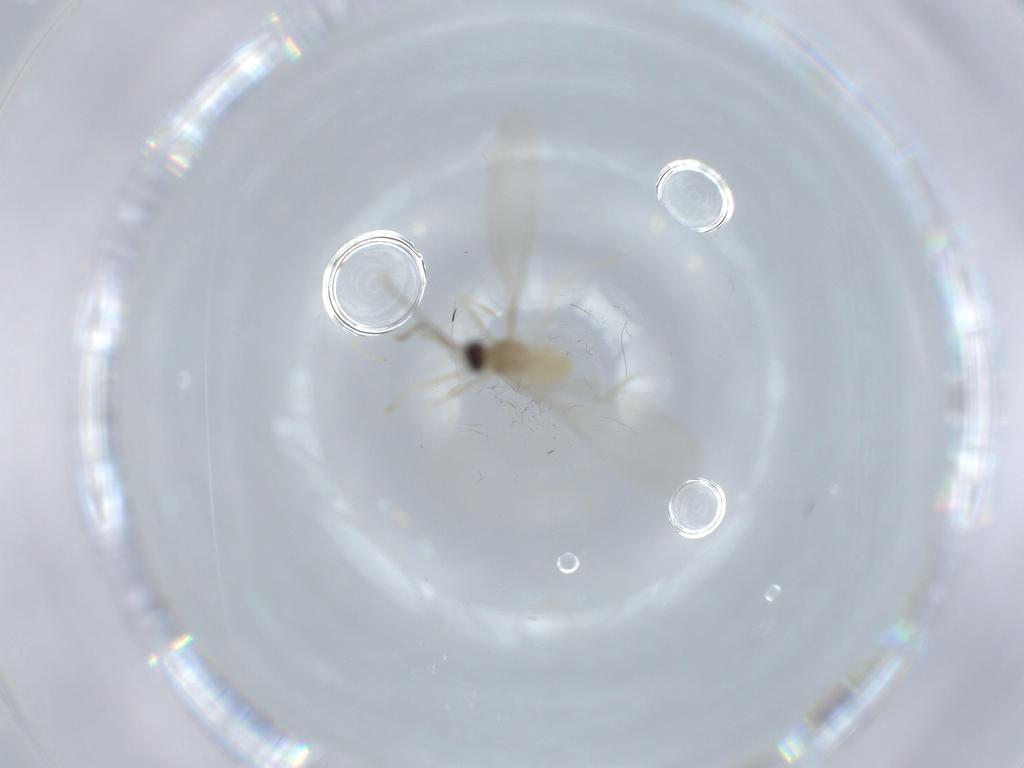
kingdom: Animalia
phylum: Arthropoda
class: Insecta
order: Diptera
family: Cecidomyiidae
